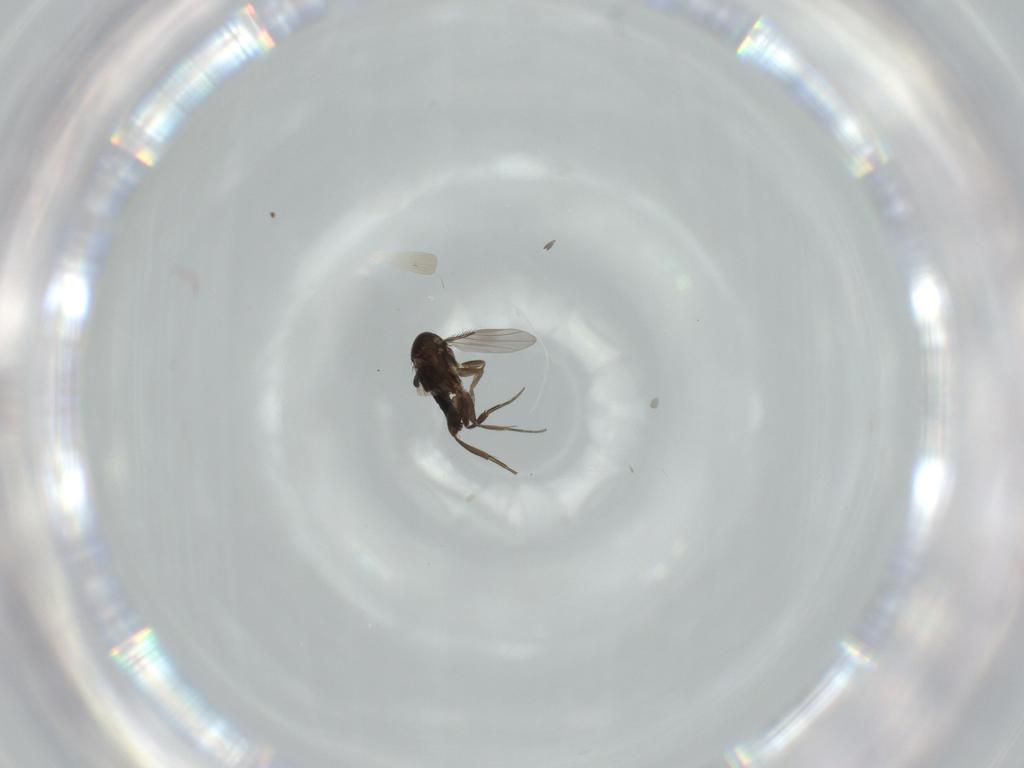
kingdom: Animalia
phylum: Arthropoda
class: Insecta
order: Diptera
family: Phoridae
